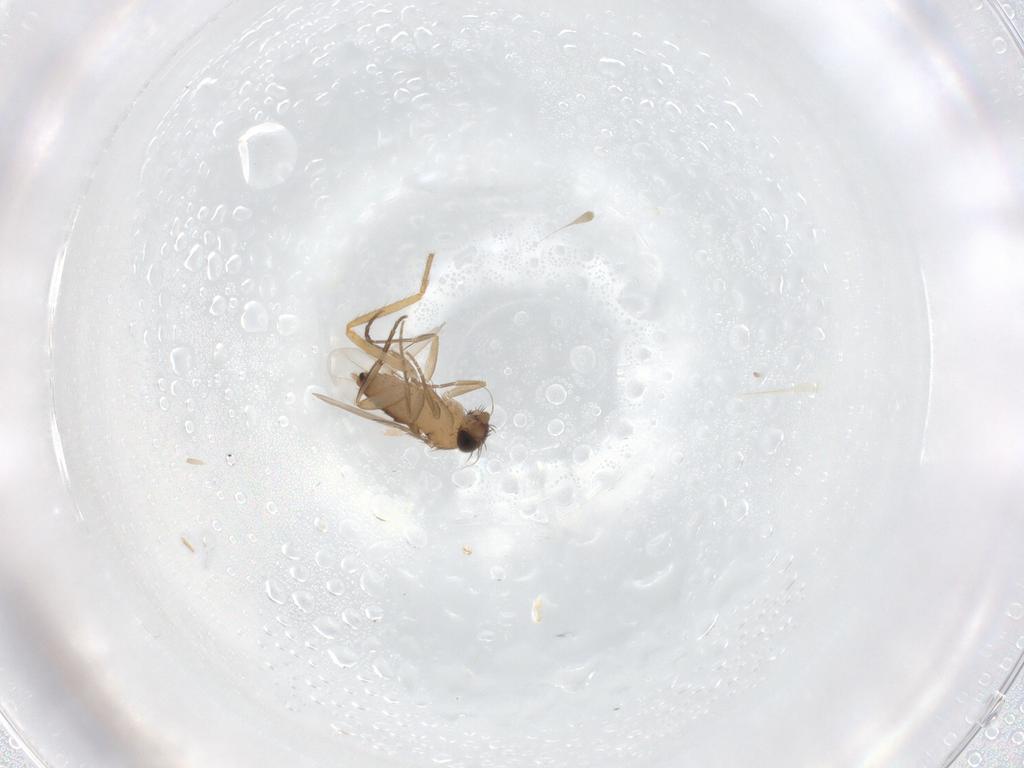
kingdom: Animalia
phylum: Arthropoda
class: Insecta
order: Diptera
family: Phoridae
